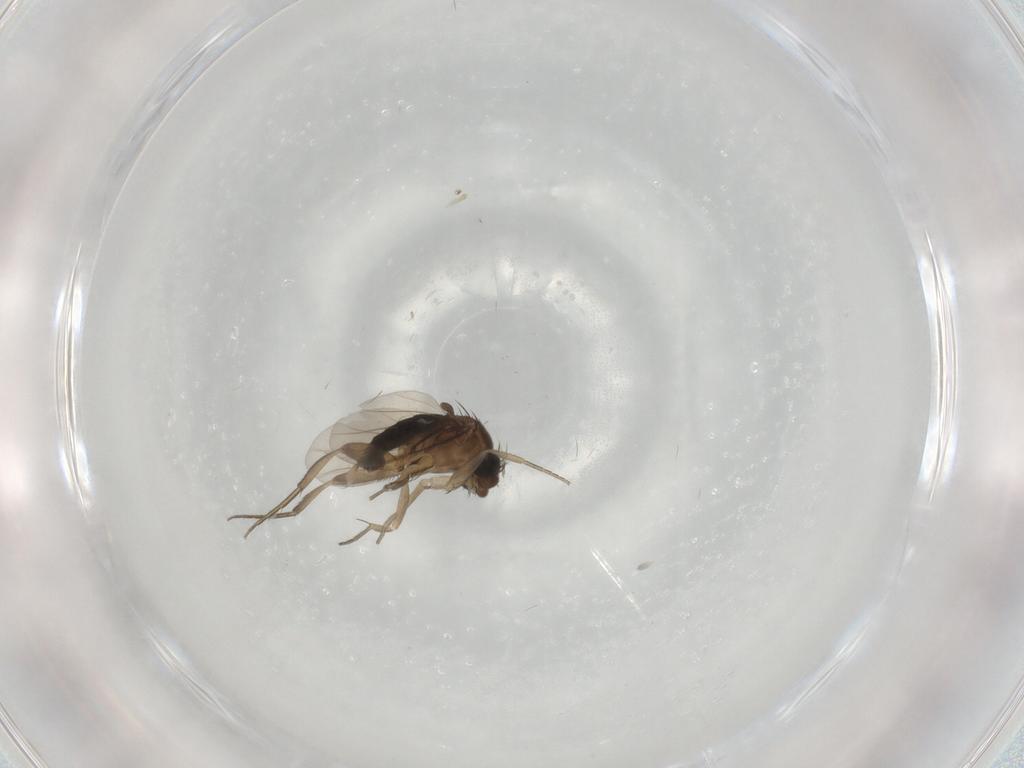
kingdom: Animalia
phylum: Arthropoda
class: Insecta
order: Diptera
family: Phoridae
